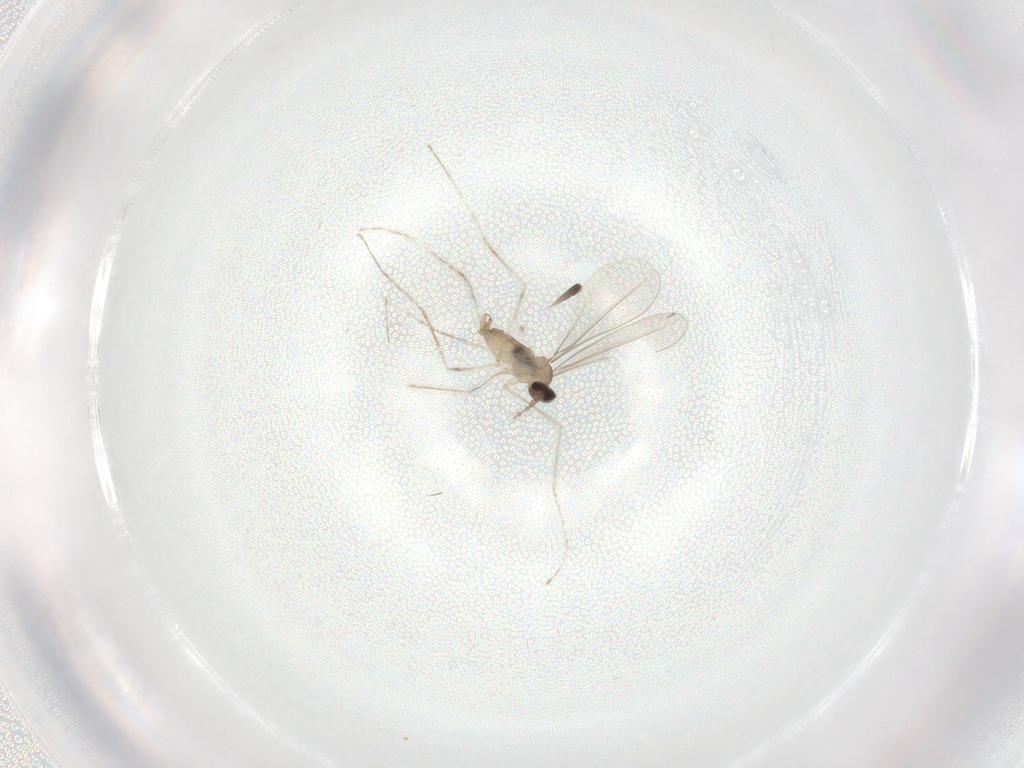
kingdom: Animalia
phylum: Arthropoda
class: Insecta
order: Diptera
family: Cecidomyiidae
